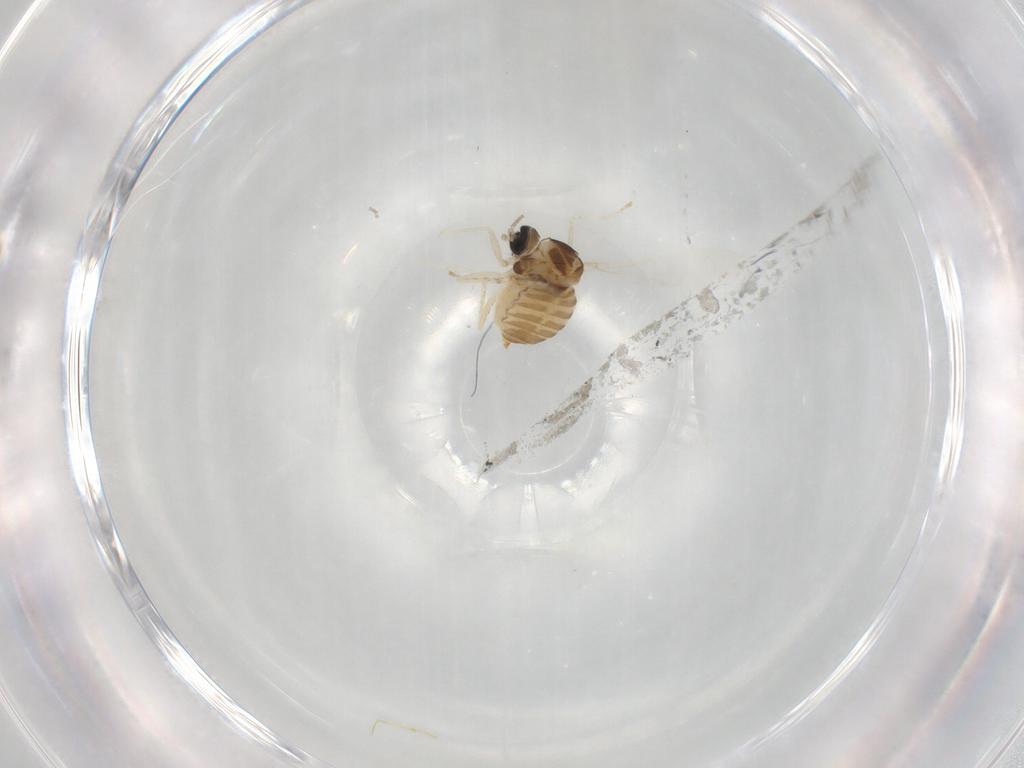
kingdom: Animalia
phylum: Arthropoda
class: Insecta
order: Diptera
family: Cecidomyiidae
